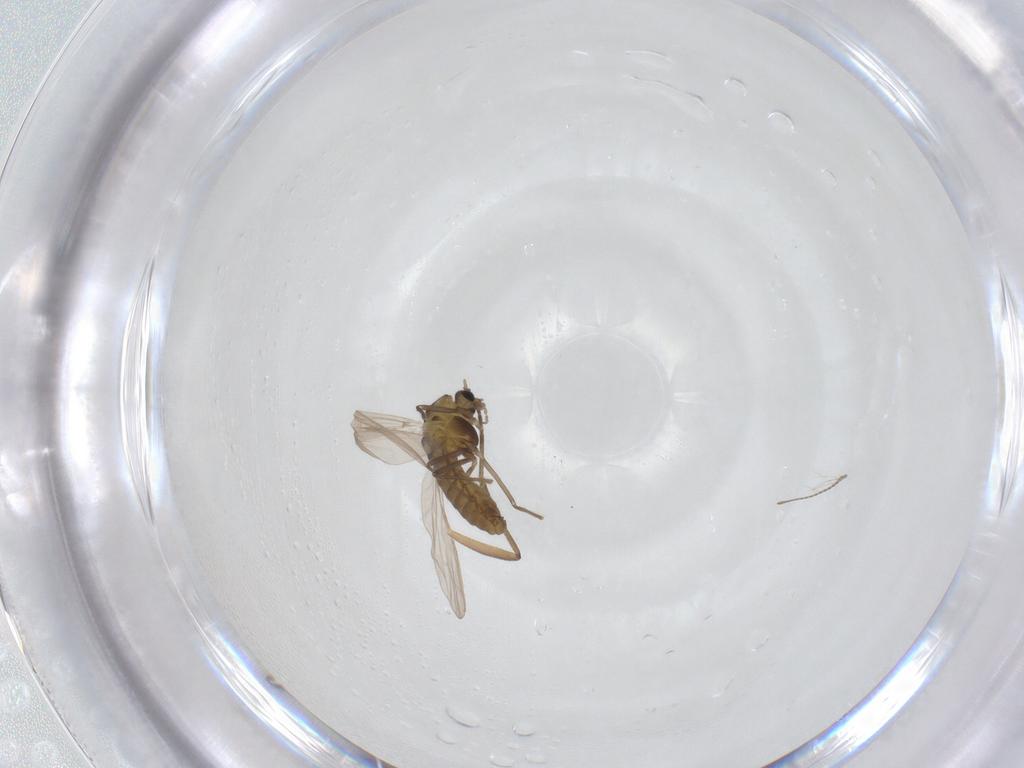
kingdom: Animalia
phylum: Arthropoda
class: Insecta
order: Diptera
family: Chironomidae
